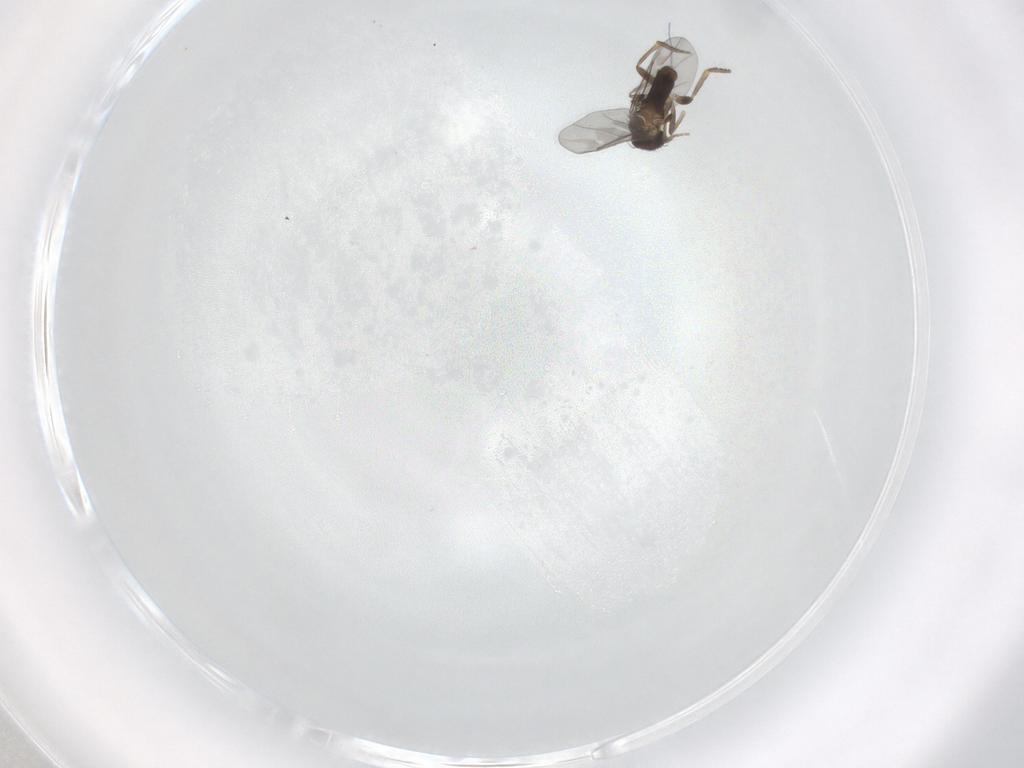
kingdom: Animalia
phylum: Arthropoda
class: Insecta
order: Diptera
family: Culicidae
